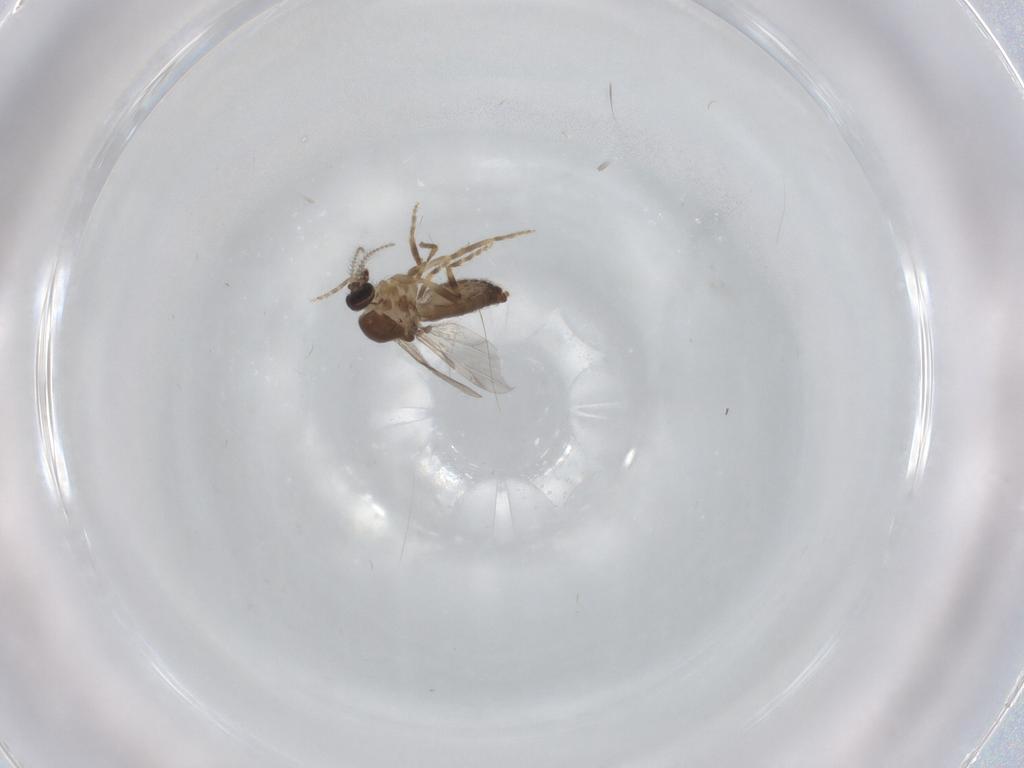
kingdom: Animalia
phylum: Arthropoda
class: Insecta
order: Diptera
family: Ceratopogonidae
